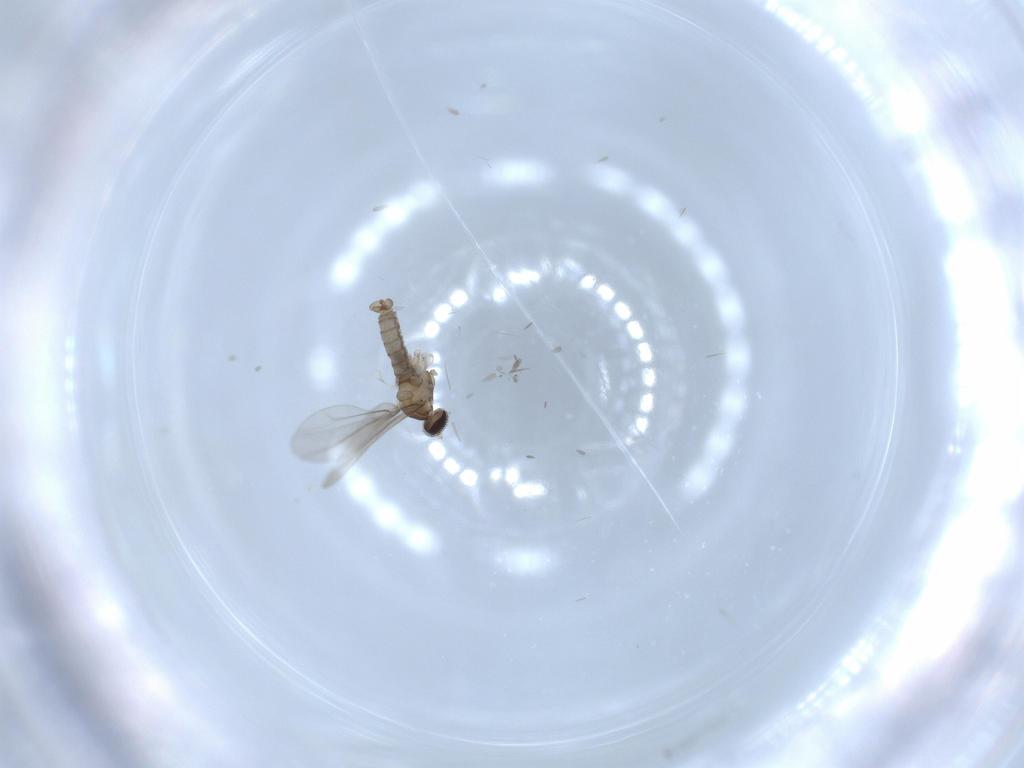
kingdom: Animalia
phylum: Arthropoda
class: Insecta
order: Diptera
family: Cecidomyiidae
